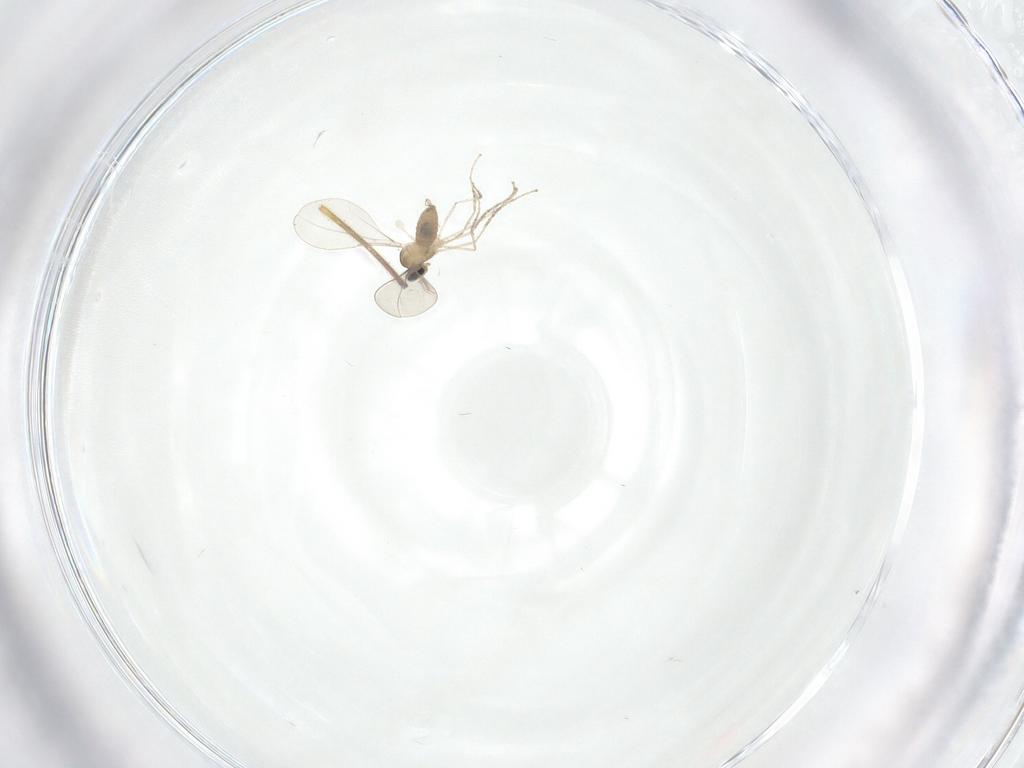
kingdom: Animalia
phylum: Arthropoda
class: Insecta
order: Diptera
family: Cecidomyiidae
